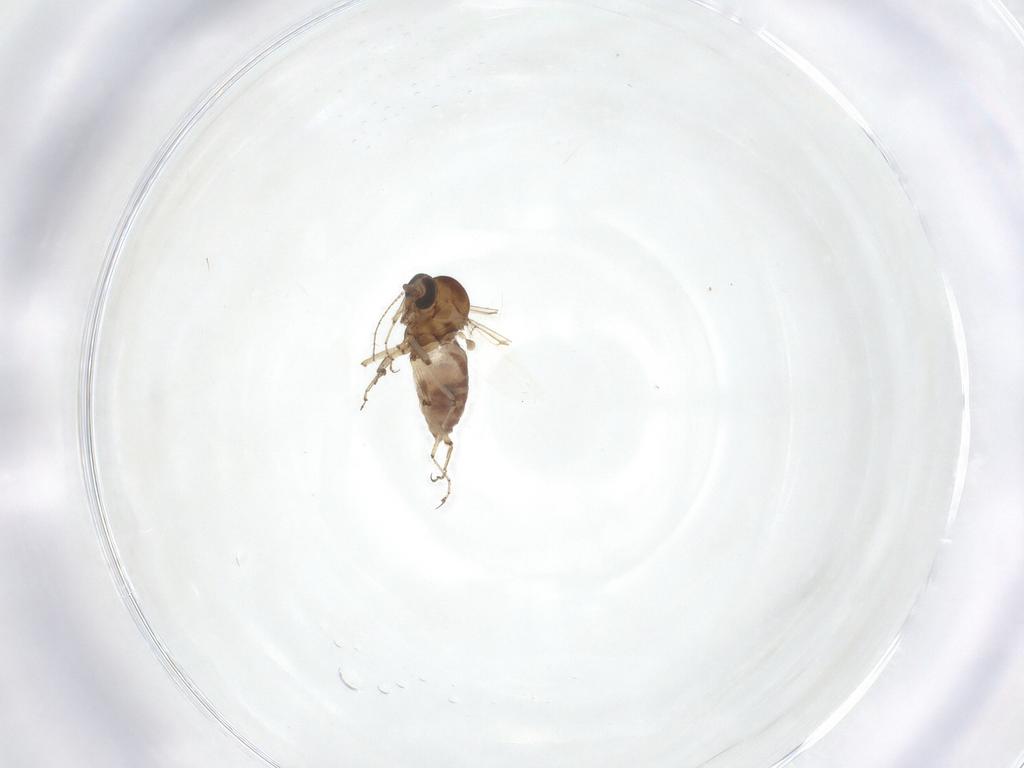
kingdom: Animalia
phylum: Arthropoda
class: Insecta
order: Diptera
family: Ceratopogonidae
